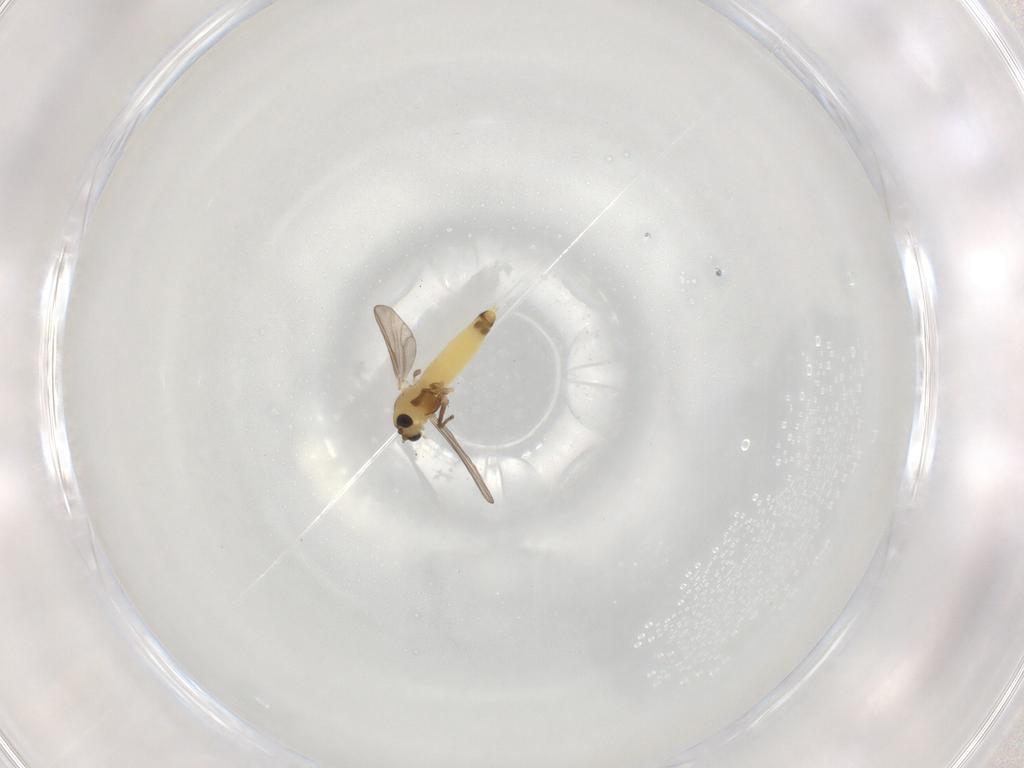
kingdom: Animalia
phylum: Arthropoda
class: Insecta
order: Diptera
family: Chironomidae
